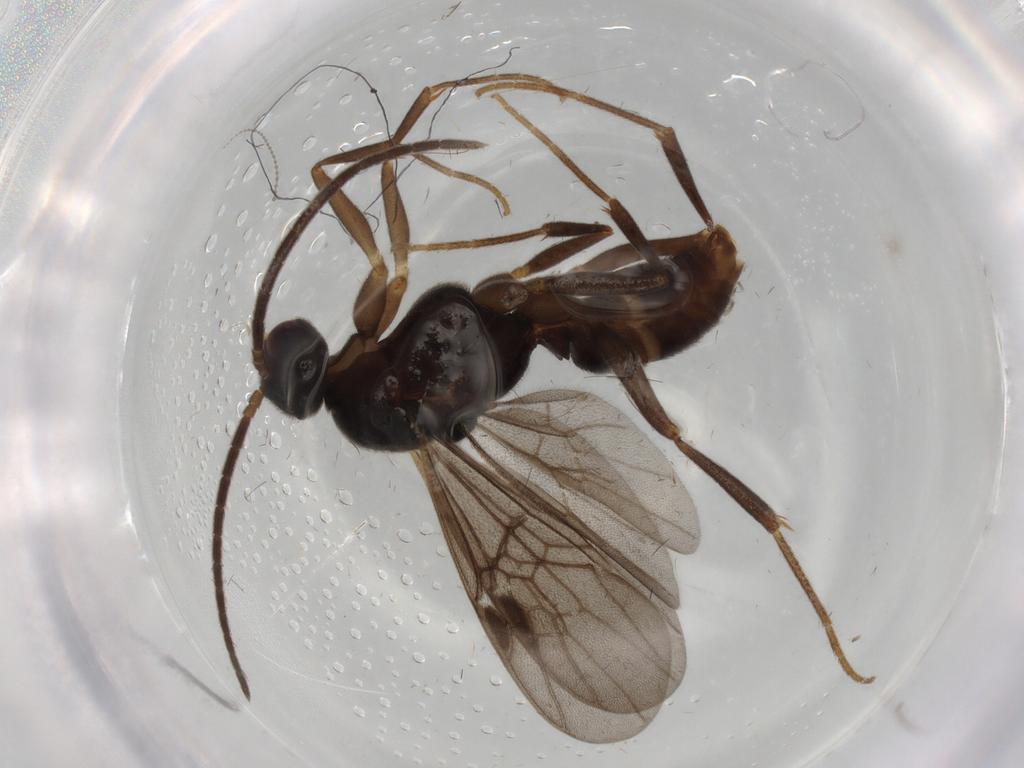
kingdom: Animalia
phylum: Arthropoda
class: Insecta
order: Hymenoptera
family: Formicidae
